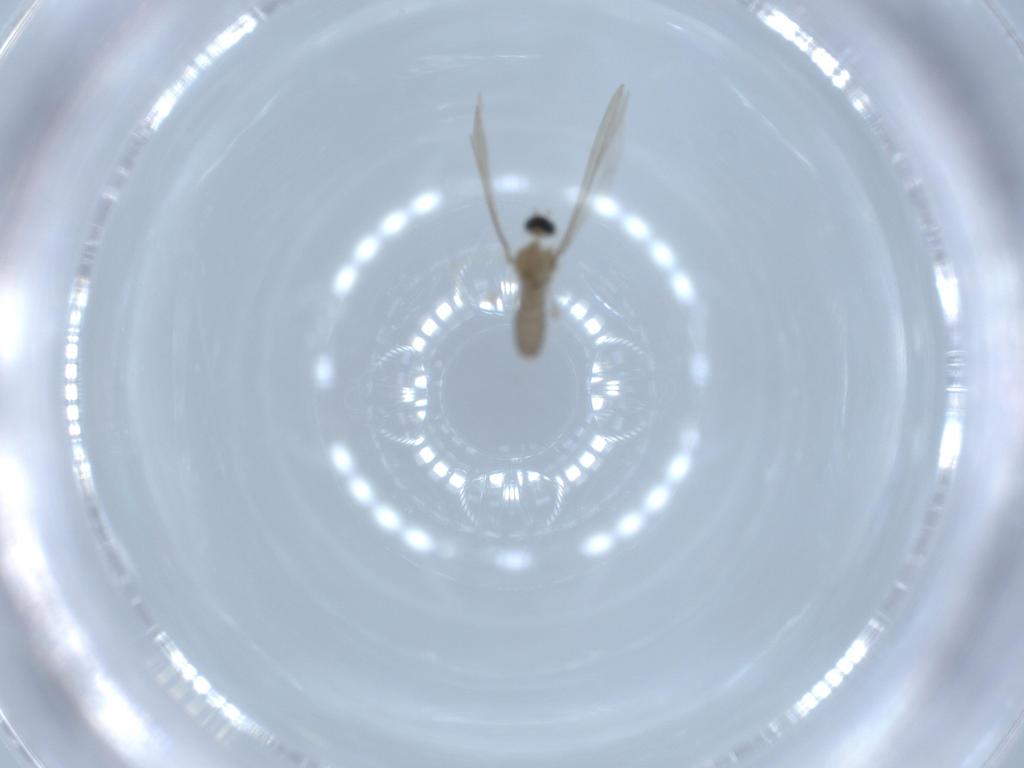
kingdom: Animalia
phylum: Arthropoda
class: Insecta
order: Diptera
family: Cecidomyiidae
